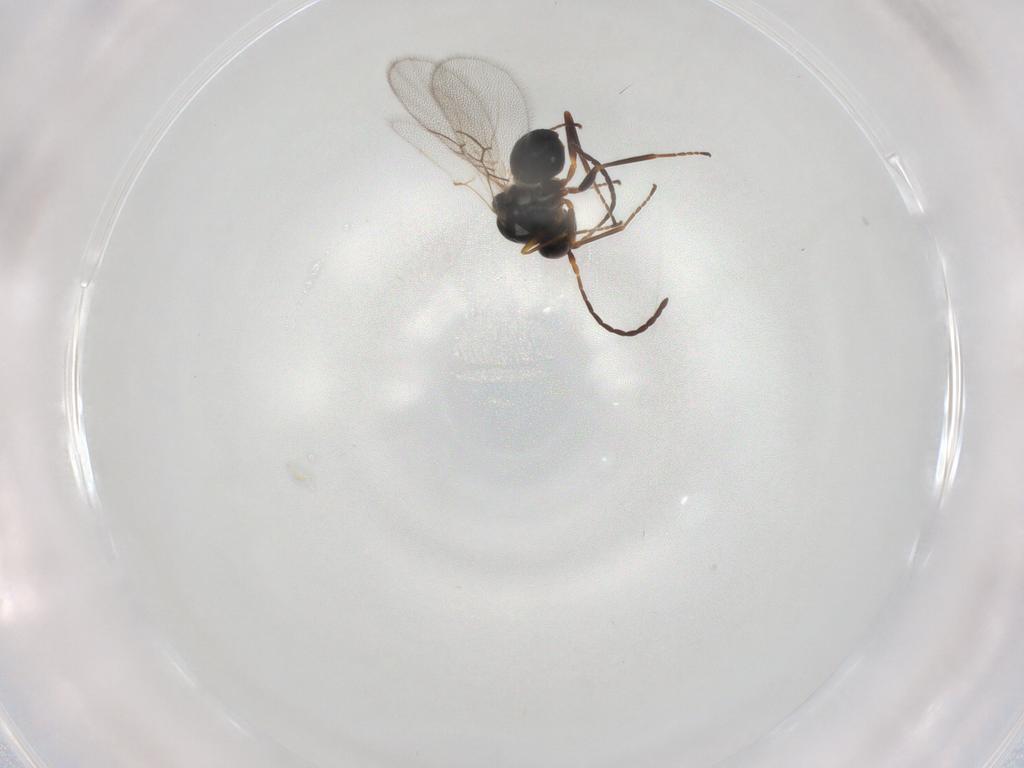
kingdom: Animalia
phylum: Arthropoda
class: Insecta
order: Hymenoptera
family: Figitidae
